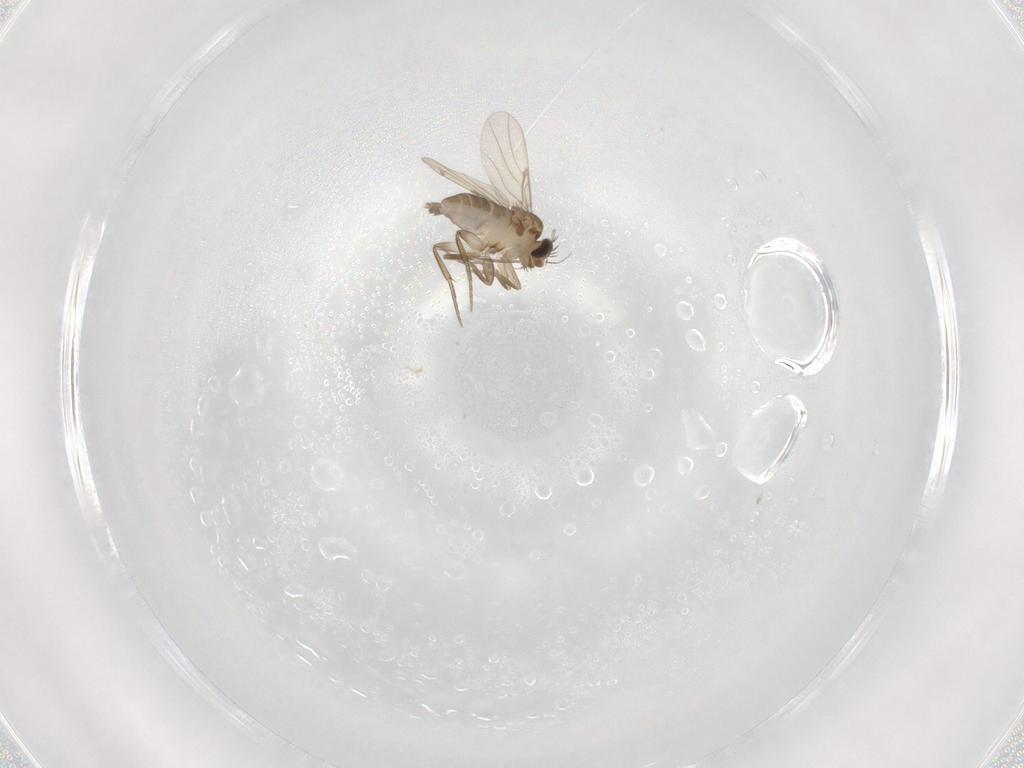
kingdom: Animalia
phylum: Arthropoda
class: Insecta
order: Diptera
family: Phoridae
